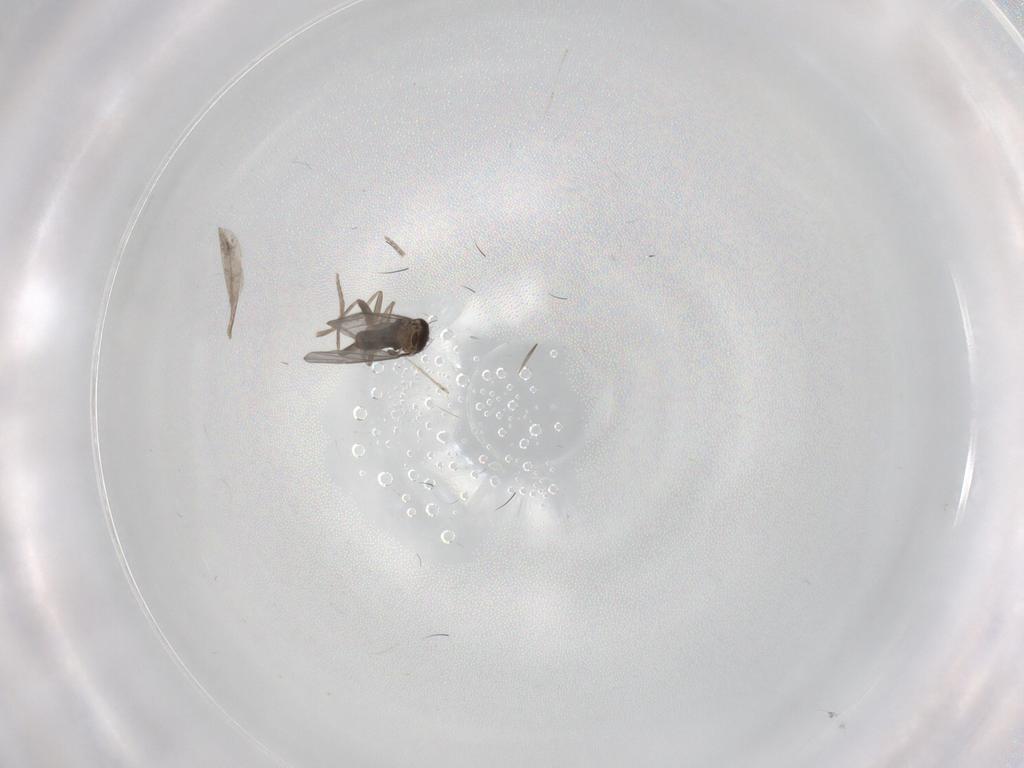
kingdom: Animalia
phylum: Arthropoda
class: Insecta
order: Diptera
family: Cecidomyiidae
